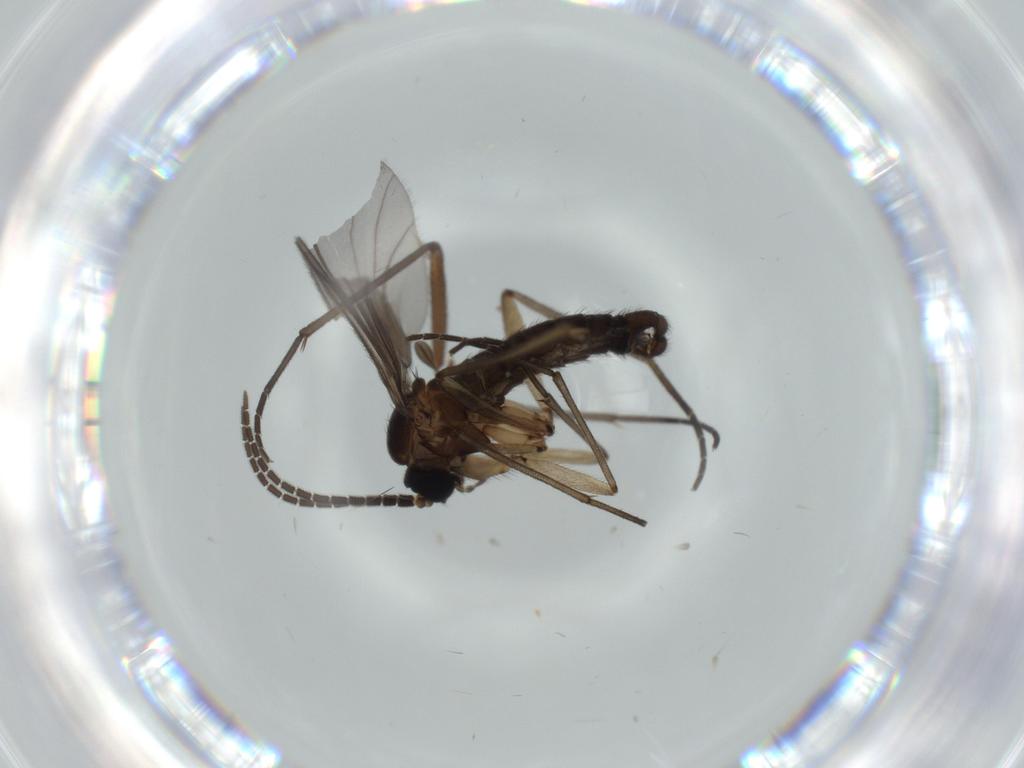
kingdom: Animalia
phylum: Arthropoda
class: Insecta
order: Diptera
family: Sciaridae
